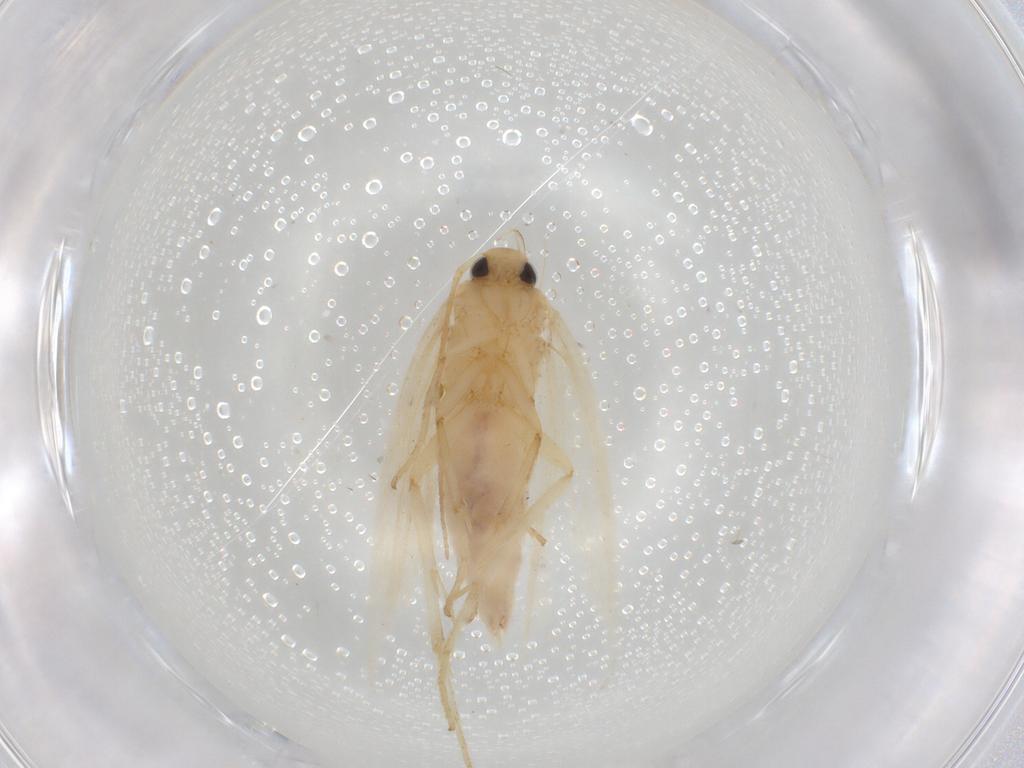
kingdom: Animalia
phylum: Arthropoda
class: Insecta
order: Lepidoptera
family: Gelechiidae
